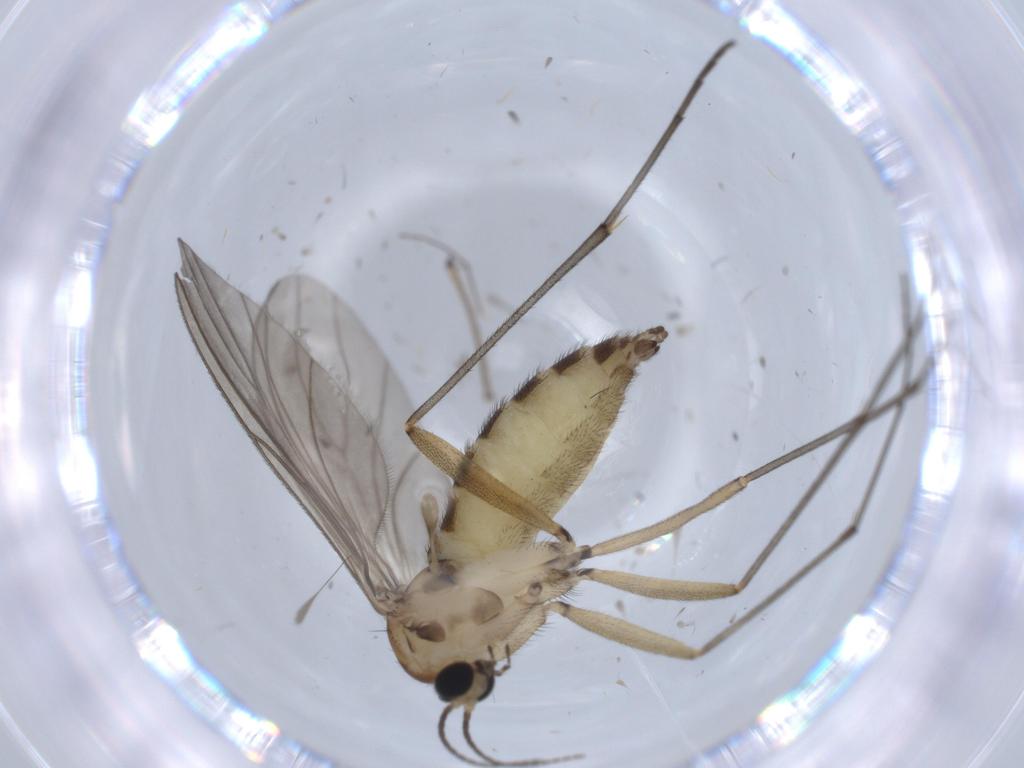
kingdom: Animalia
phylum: Arthropoda
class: Insecta
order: Diptera
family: Sciaridae
